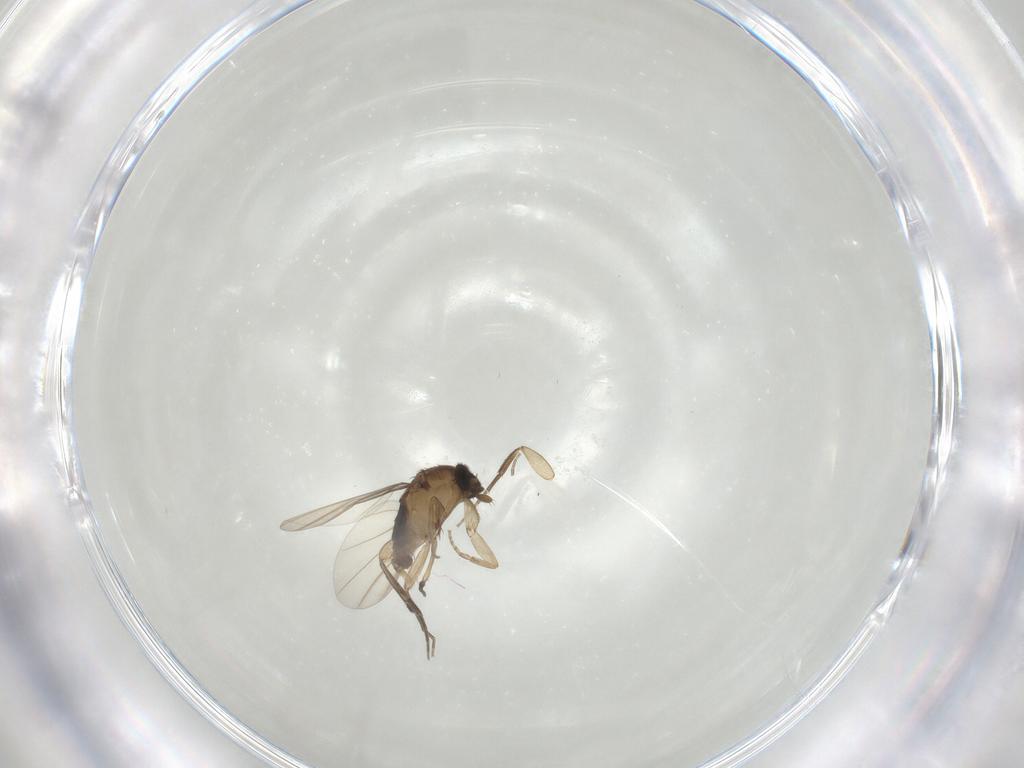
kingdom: Animalia
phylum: Arthropoda
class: Insecta
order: Diptera
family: Phoridae
